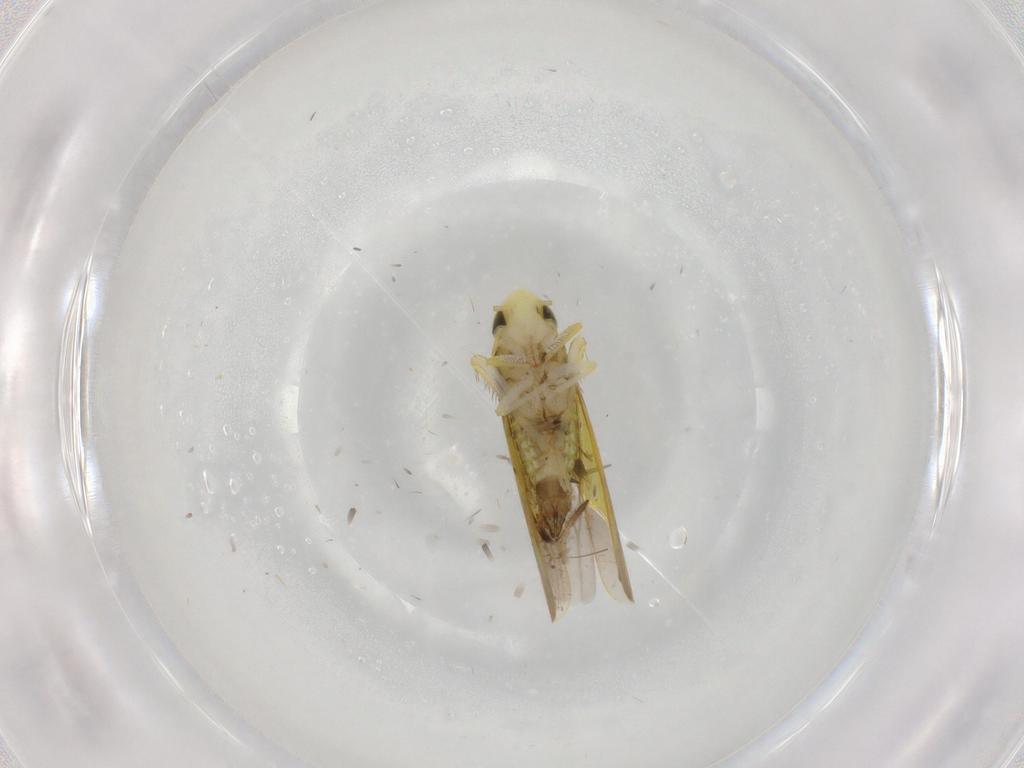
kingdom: Animalia
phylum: Arthropoda
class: Insecta
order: Hemiptera
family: Cicadellidae
